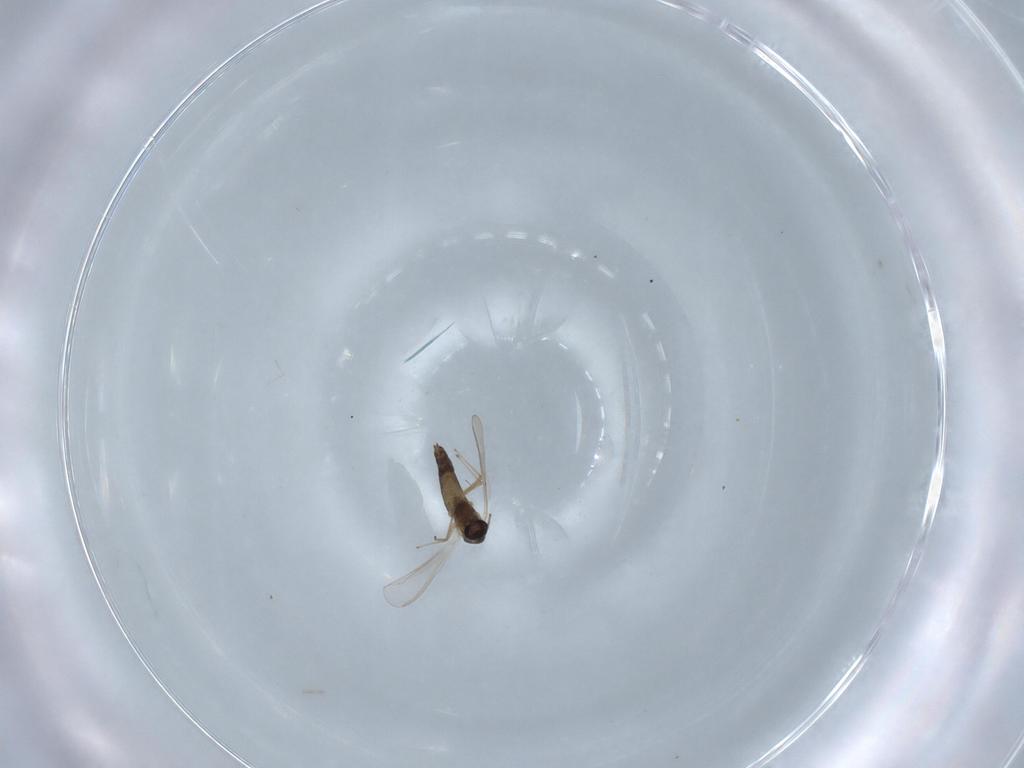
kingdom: Animalia
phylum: Arthropoda
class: Insecta
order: Diptera
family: Chironomidae
